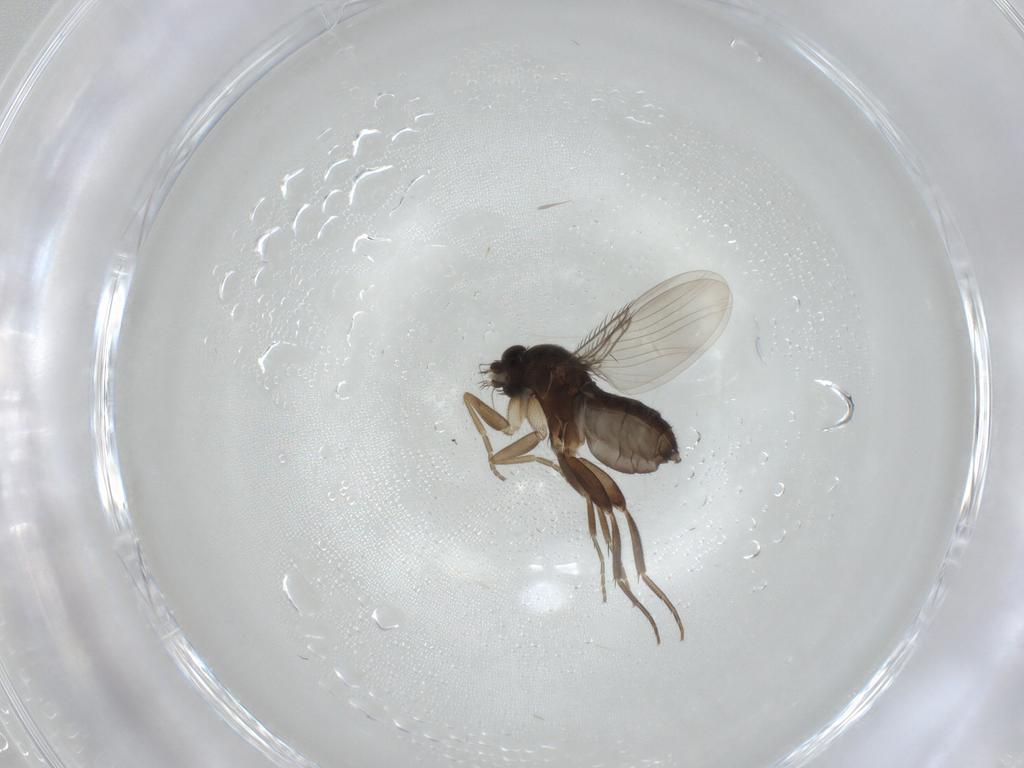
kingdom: Animalia
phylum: Arthropoda
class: Insecta
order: Diptera
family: Phoridae
